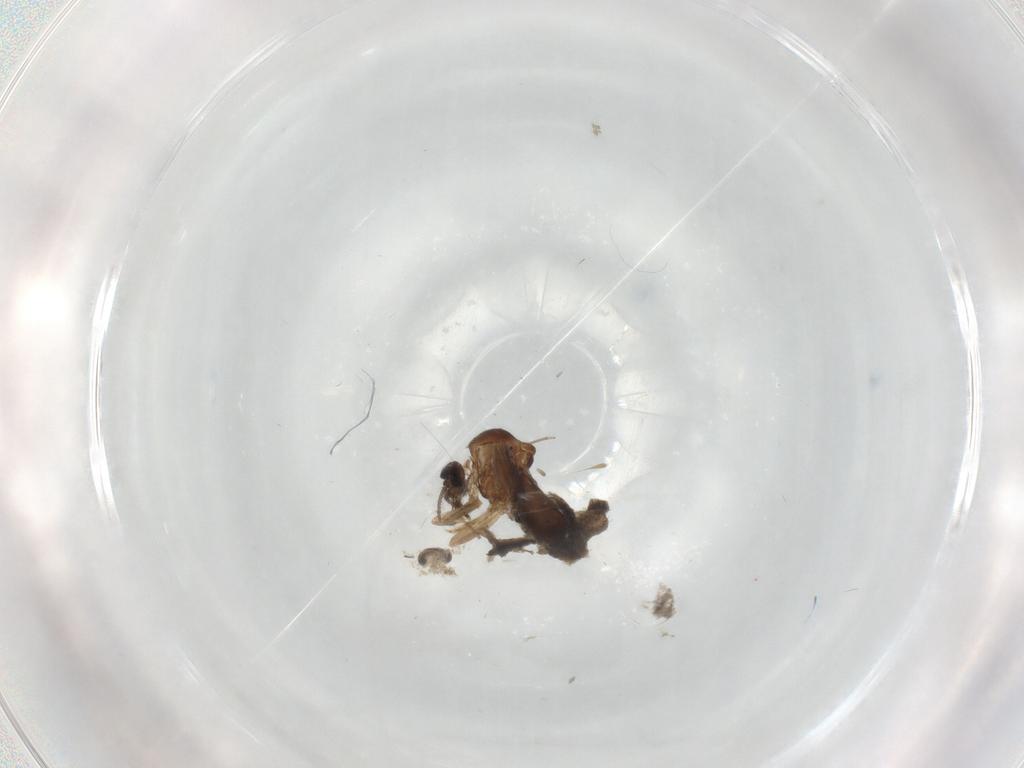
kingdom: Animalia
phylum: Arthropoda
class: Insecta
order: Diptera
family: Ceratopogonidae
